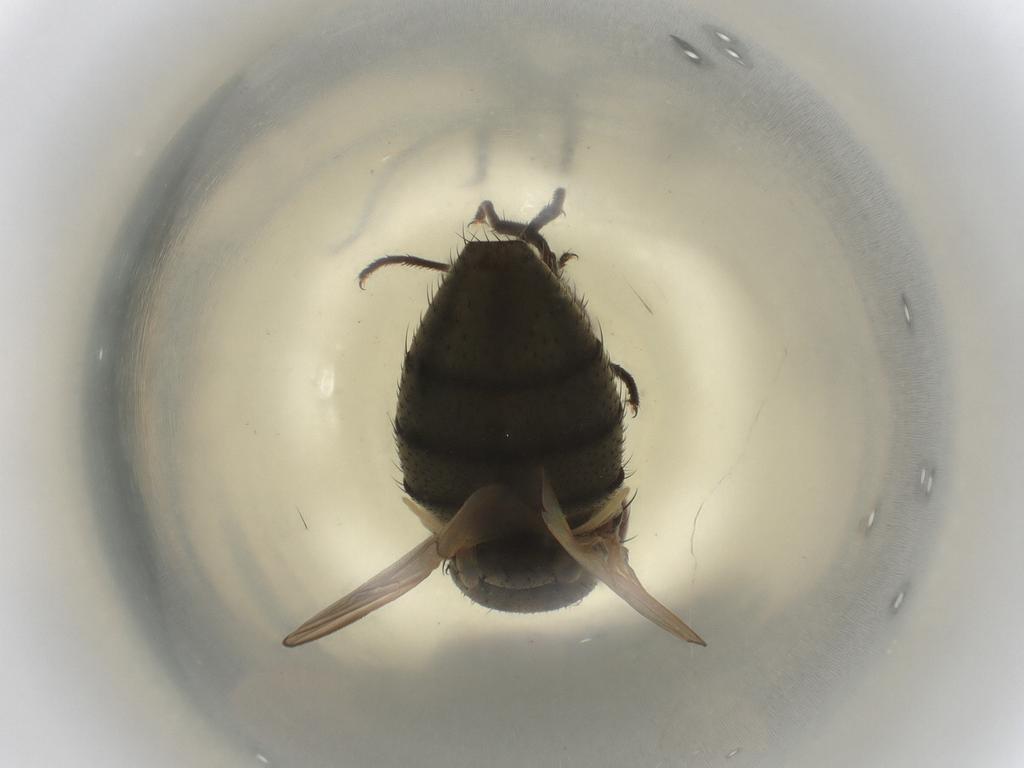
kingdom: Animalia
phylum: Arthropoda
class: Insecta
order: Diptera
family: Muscidae
